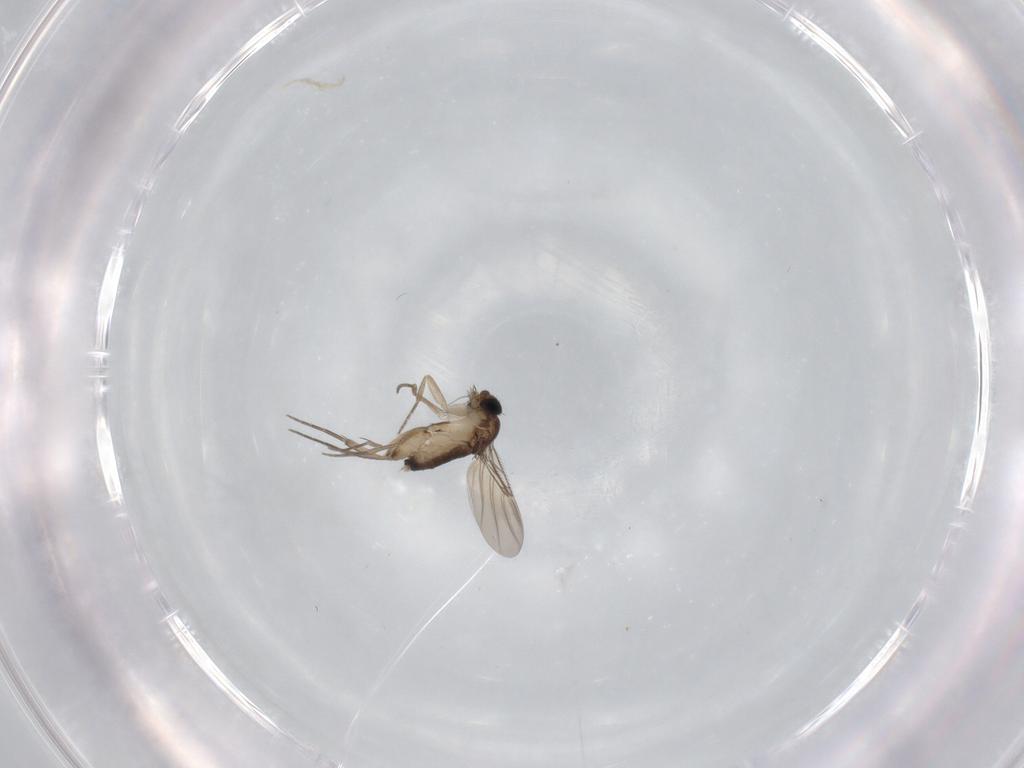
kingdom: Animalia
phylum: Arthropoda
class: Insecta
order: Diptera
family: Phoridae
